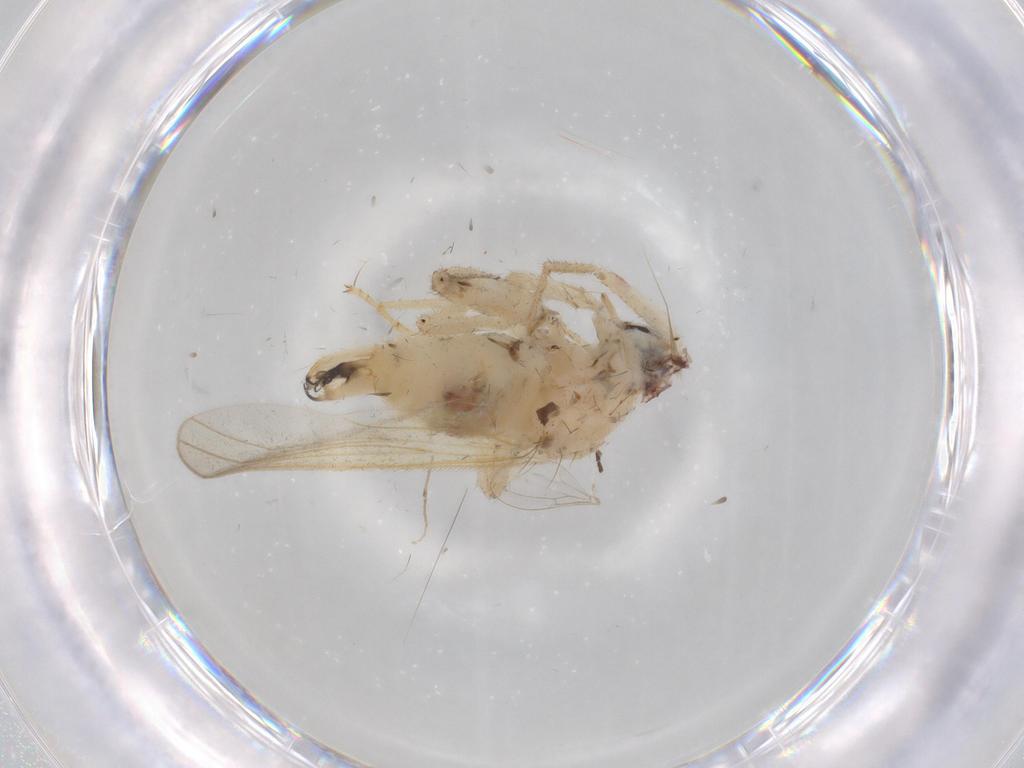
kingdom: Animalia
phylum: Arthropoda
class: Insecta
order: Diptera
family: Hybotidae
